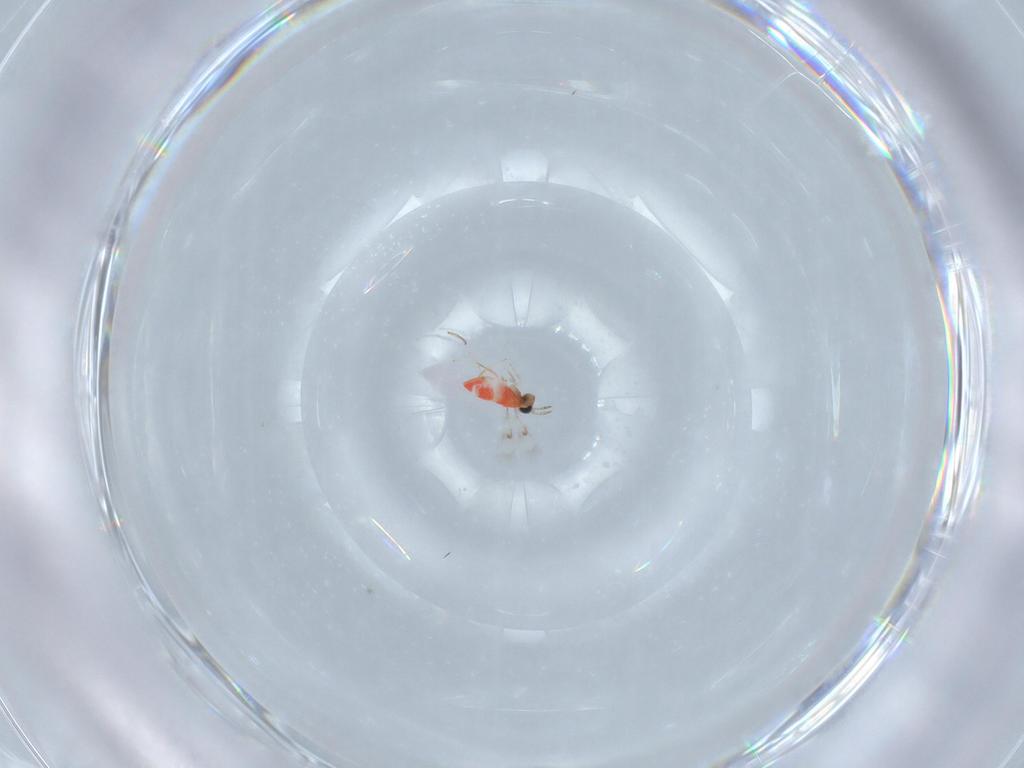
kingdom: Animalia
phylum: Arthropoda
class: Insecta
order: Hymenoptera
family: Trichogrammatidae
